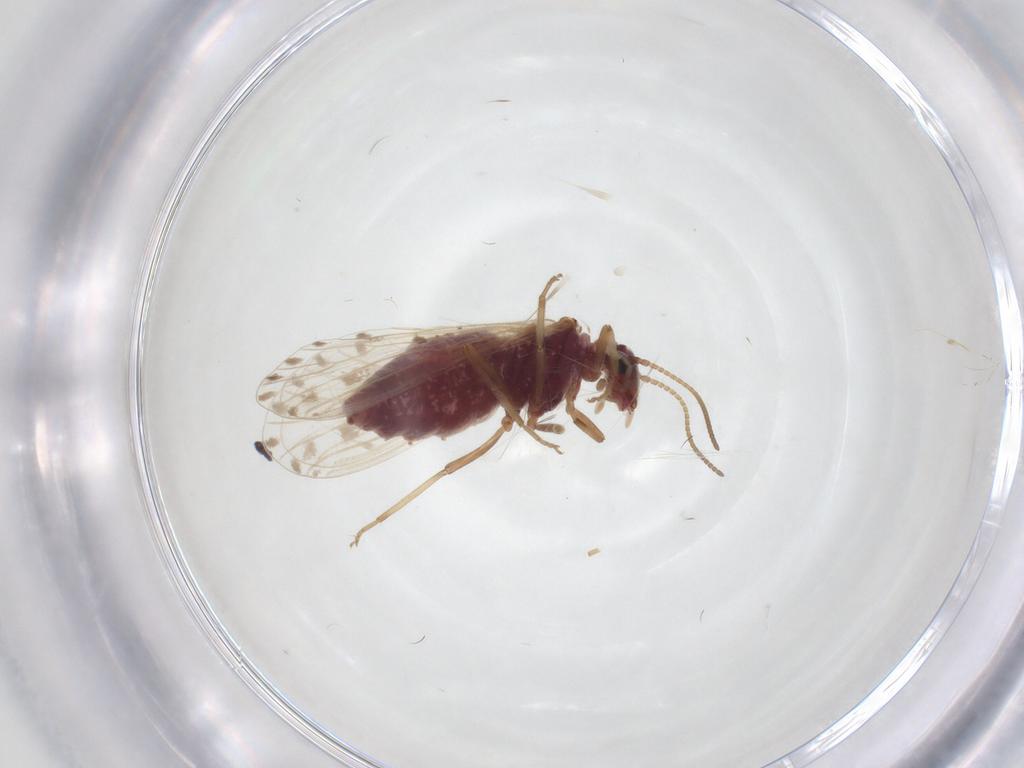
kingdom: Animalia
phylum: Arthropoda
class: Insecta
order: Neuroptera
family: Coniopterygidae
